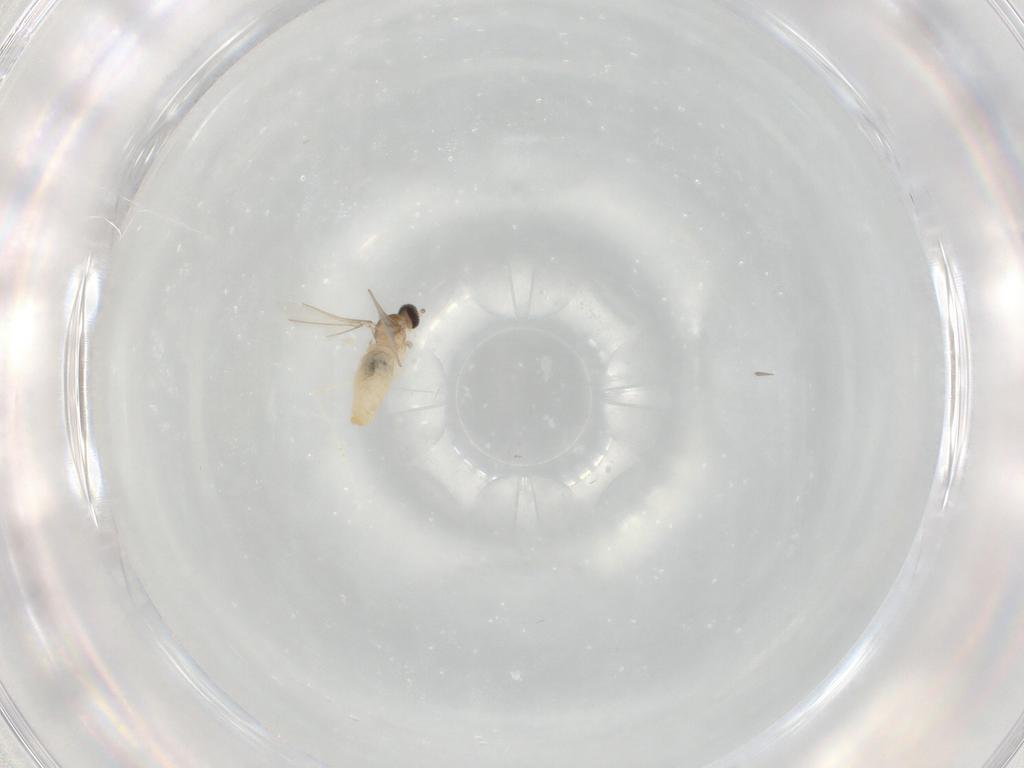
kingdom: Animalia
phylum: Arthropoda
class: Insecta
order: Diptera
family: Cecidomyiidae
